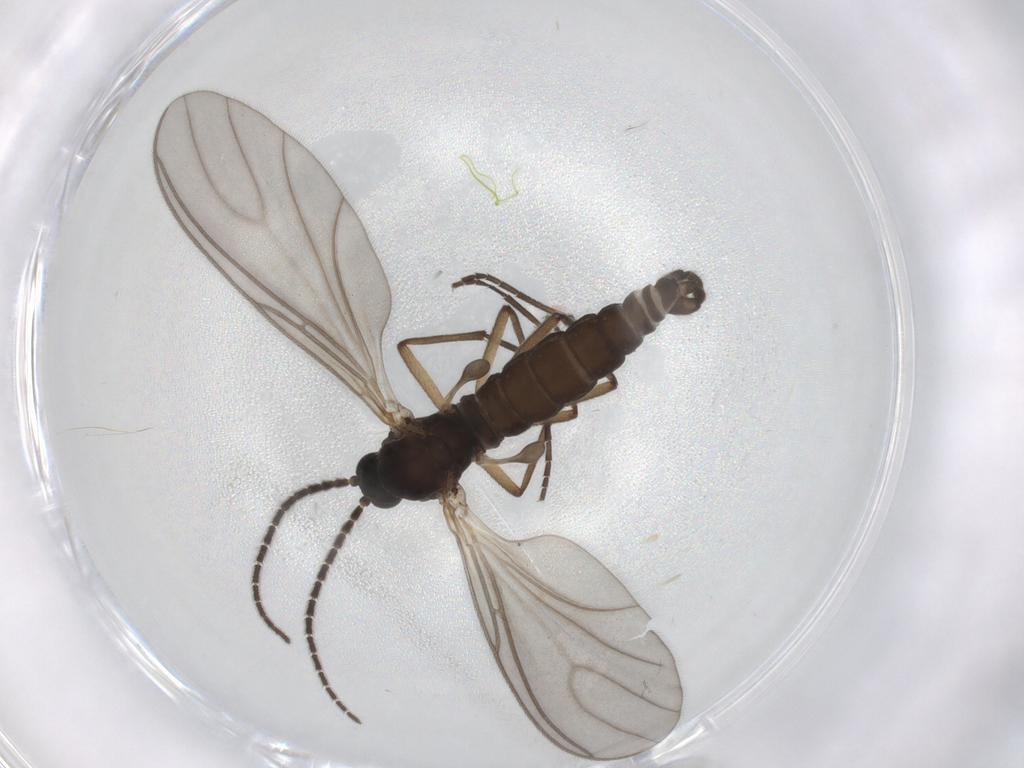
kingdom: Animalia
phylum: Arthropoda
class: Insecta
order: Diptera
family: Sciaridae
